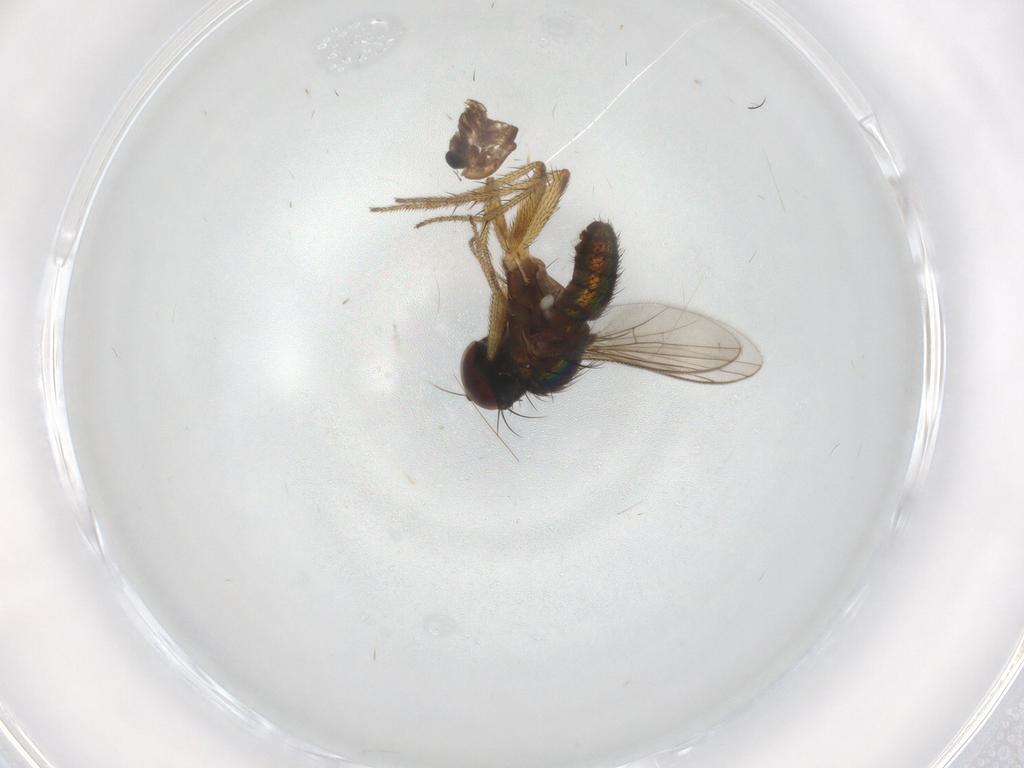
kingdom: Animalia
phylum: Arthropoda
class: Insecta
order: Diptera
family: Dolichopodidae
